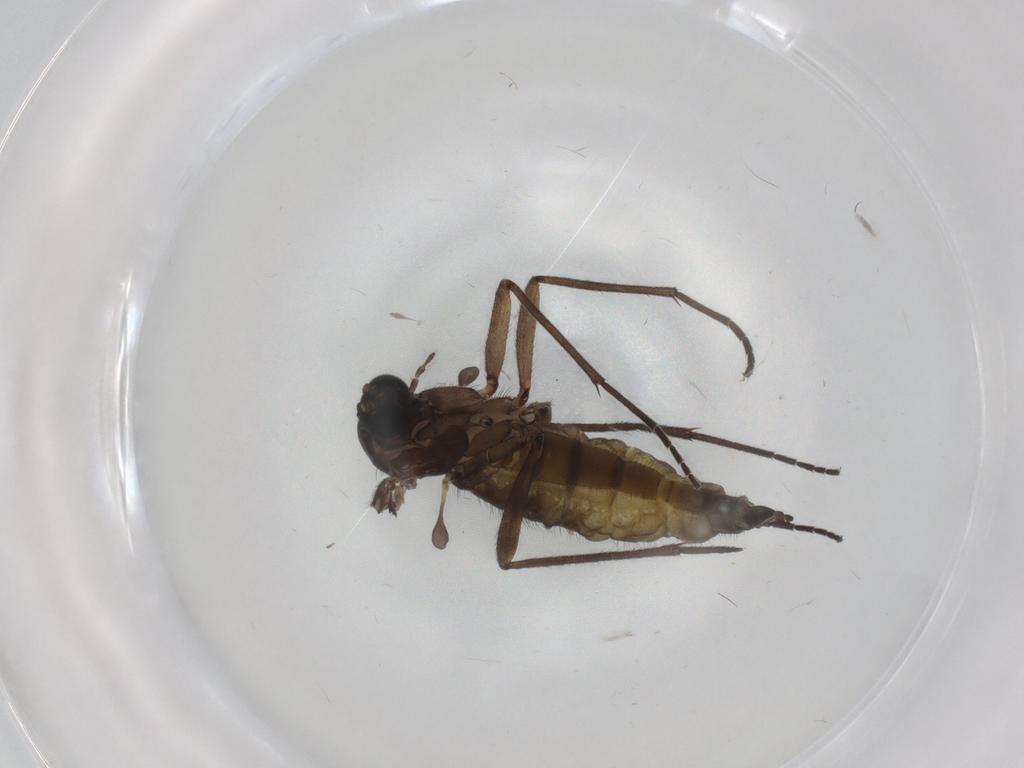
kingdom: Animalia
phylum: Arthropoda
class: Insecta
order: Diptera
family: Sciaridae
